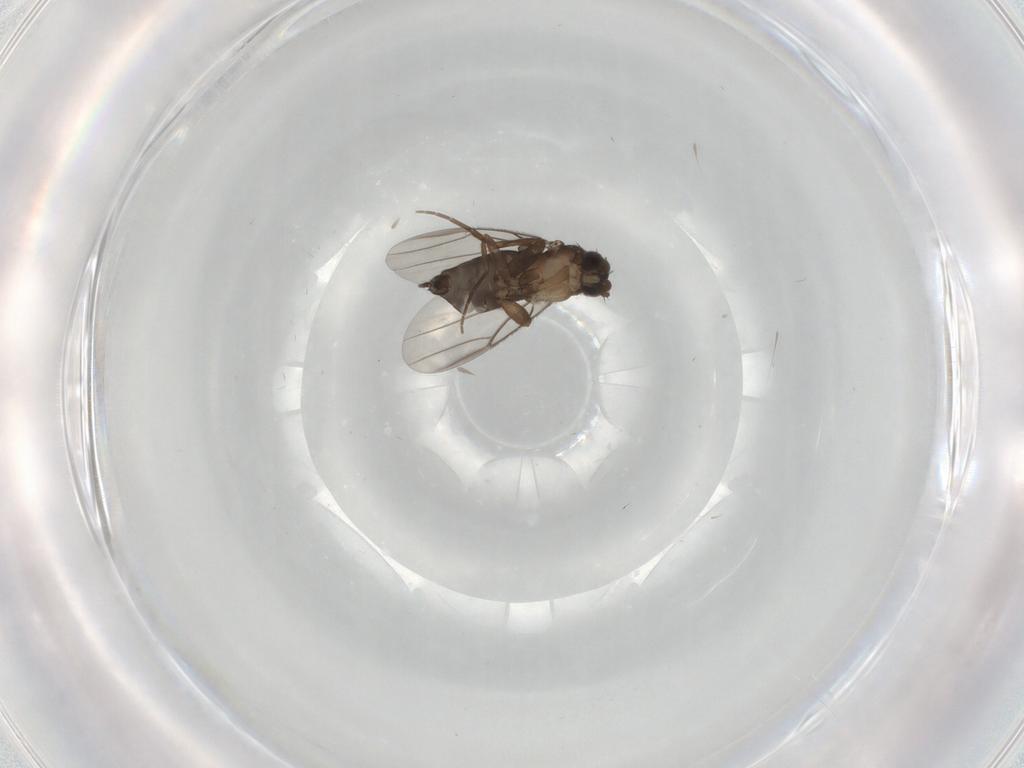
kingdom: Animalia
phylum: Arthropoda
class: Insecta
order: Diptera
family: Phoridae
